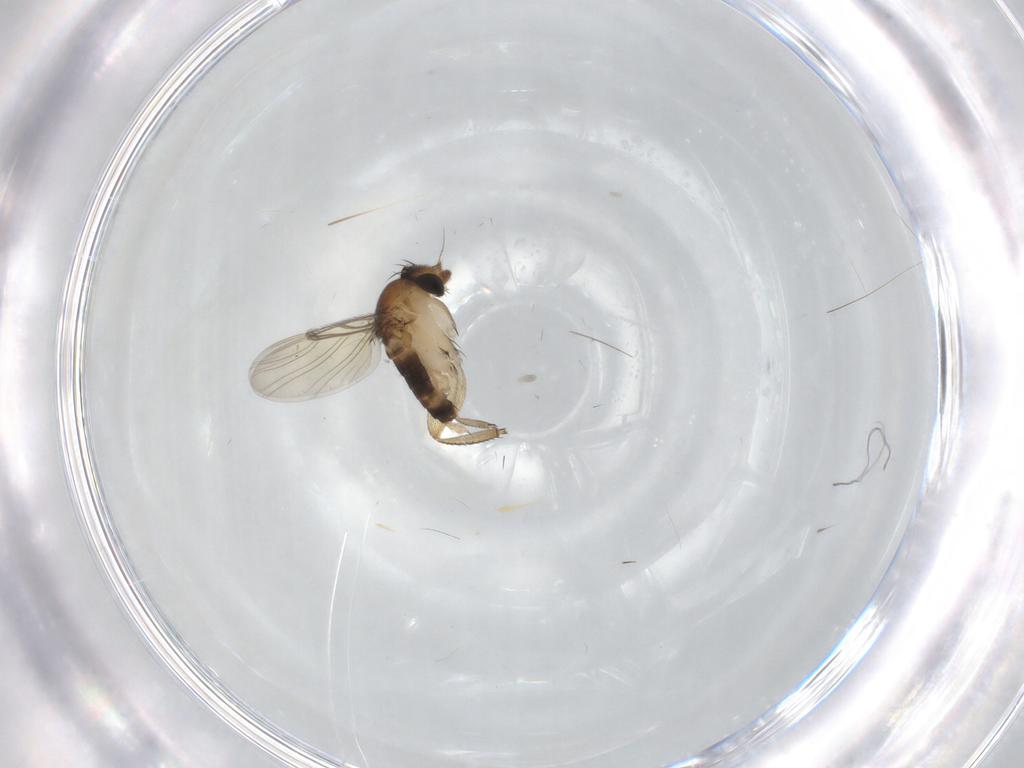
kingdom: Animalia
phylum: Arthropoda
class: Insecta
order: Diptera
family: Phoridae
